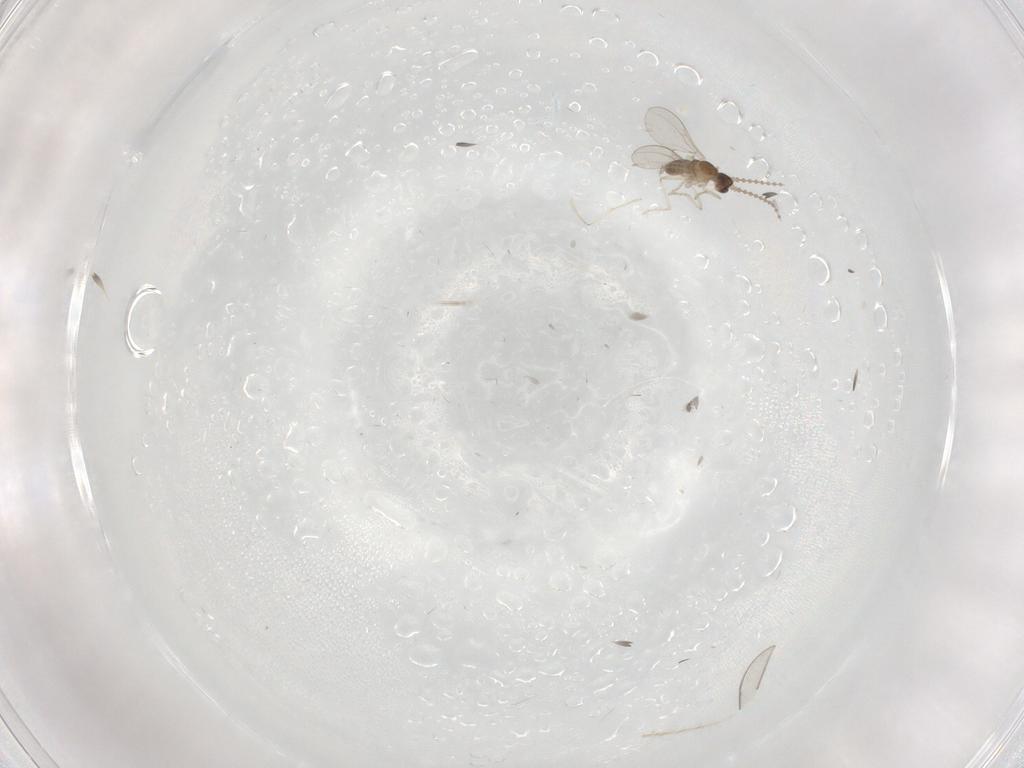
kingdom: Animalia
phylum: Arthropoda
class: Insecta
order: Diptera
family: Cecidomyiidae
